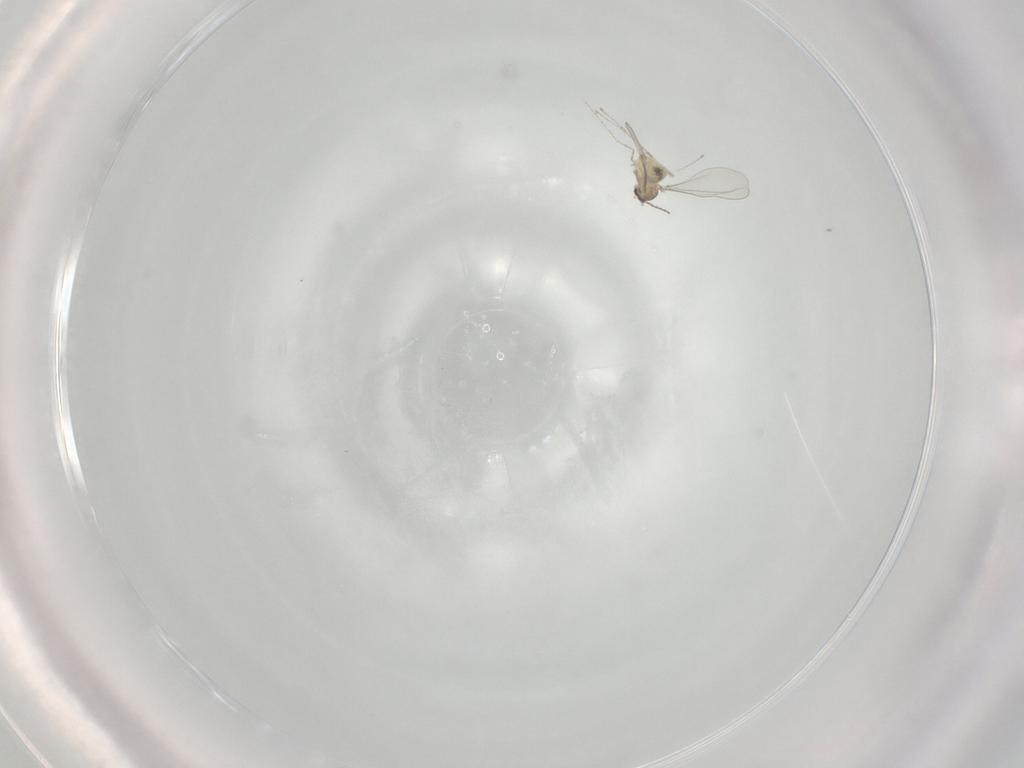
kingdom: Animalia
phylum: Arthropoda
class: Insecta
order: Diptera
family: Cecidomyiidae
